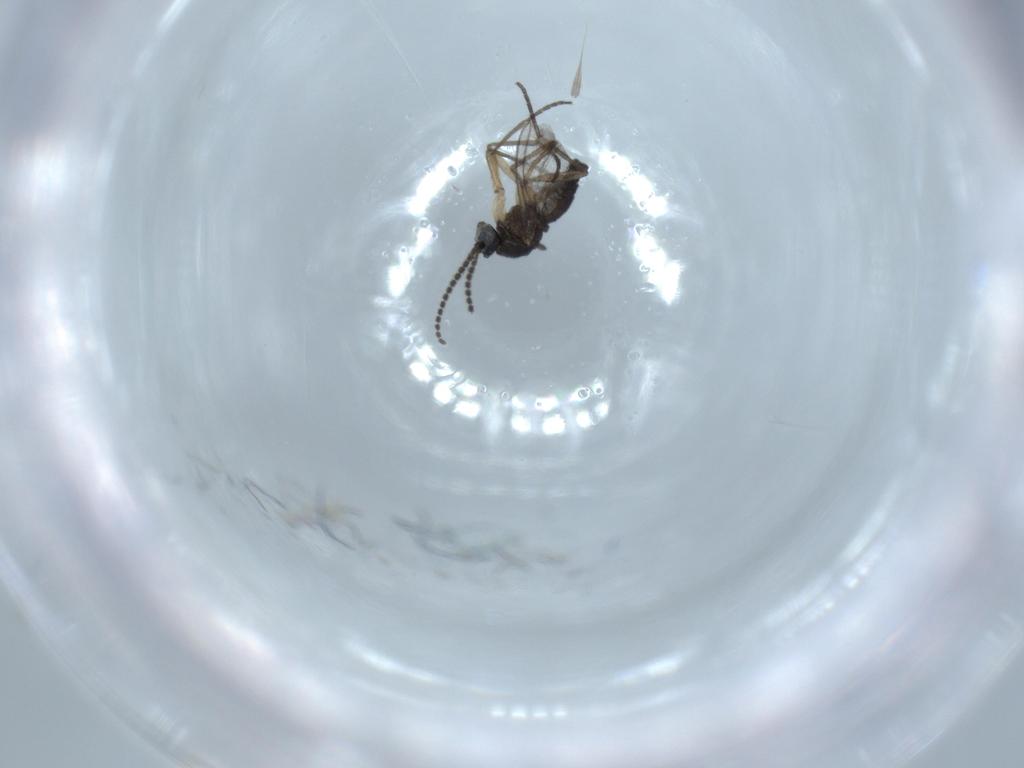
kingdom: Animalia
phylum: Arthropoda
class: Insecta
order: Diptera
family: Sciaridae
